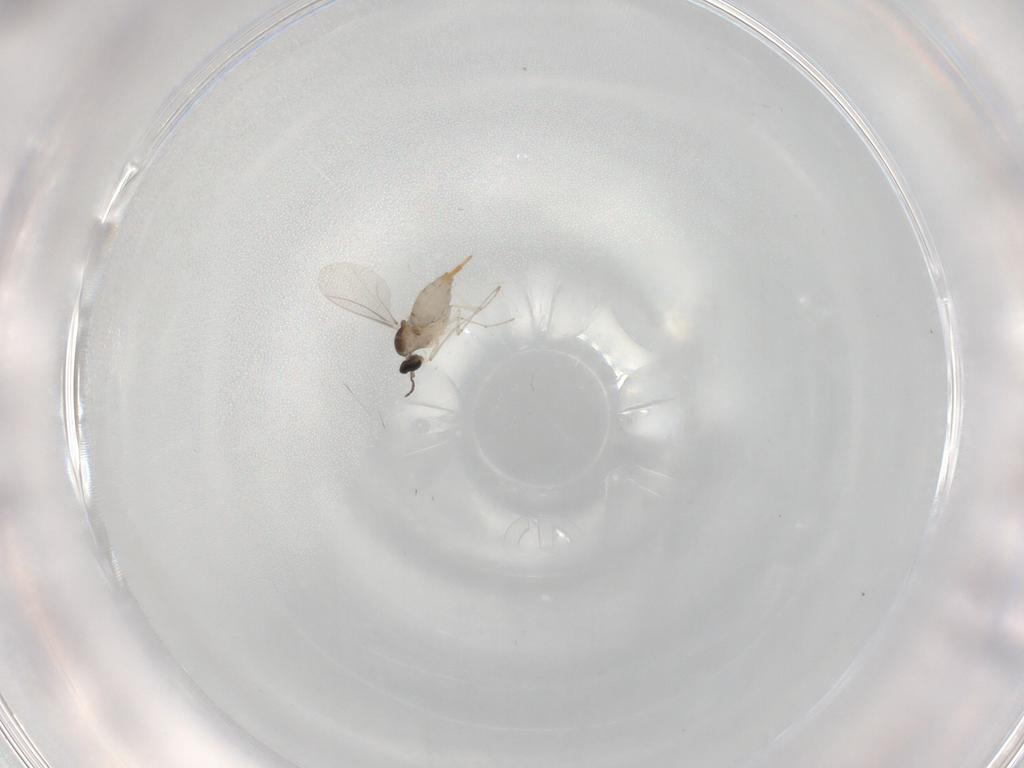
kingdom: Animalia
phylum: Arthropoda
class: Insecta
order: Diptera
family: Cecidomyiidae
